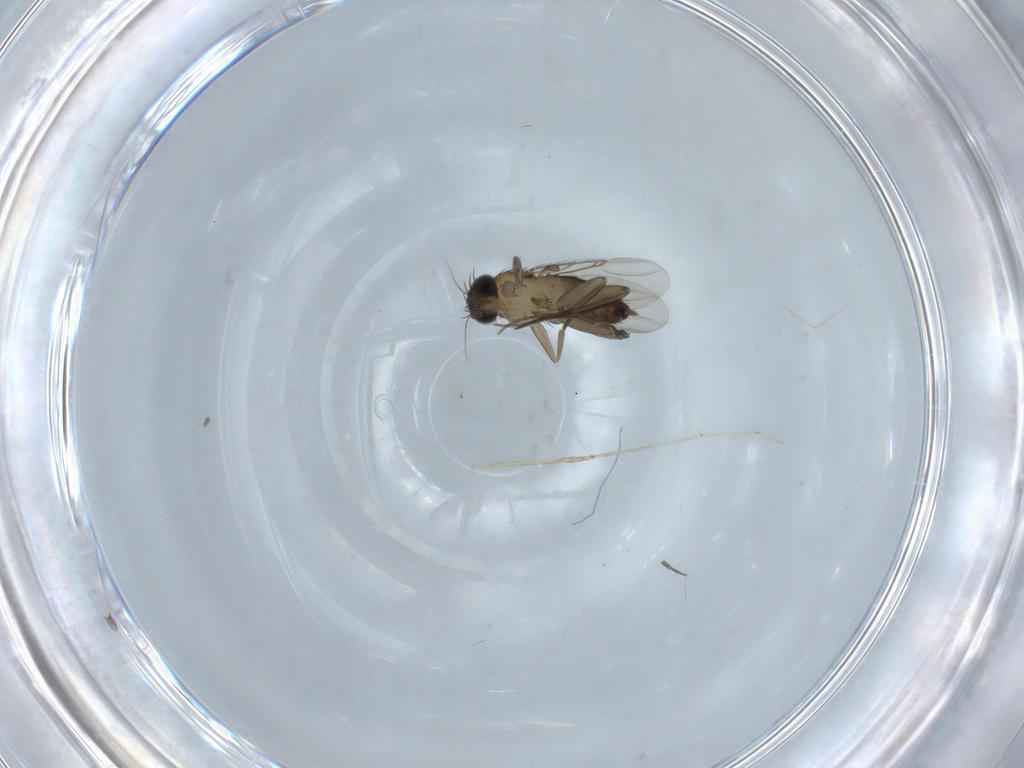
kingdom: Animalia
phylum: Arthropoda
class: Insecta
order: Diptera
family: Phoridae
